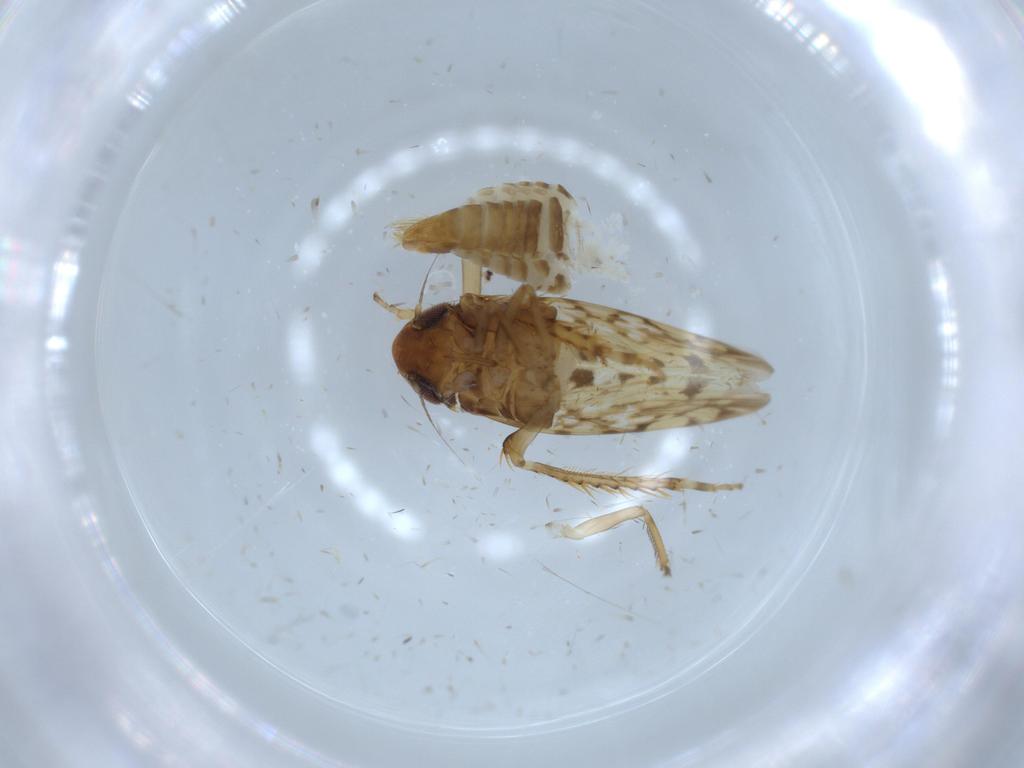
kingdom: Animalia
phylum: Arthropoda
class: Insecta
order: Hemiptera
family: Cicadellidae
